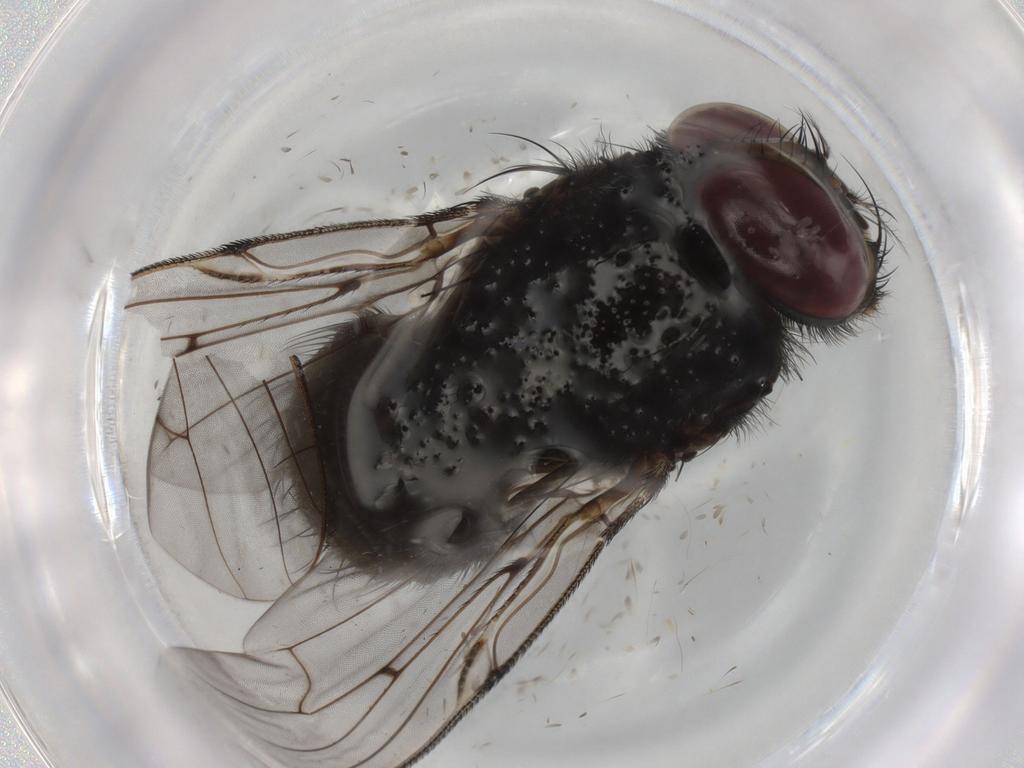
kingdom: Animalia
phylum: Arthropoda
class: Insecta
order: Diptera
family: Muscidae
